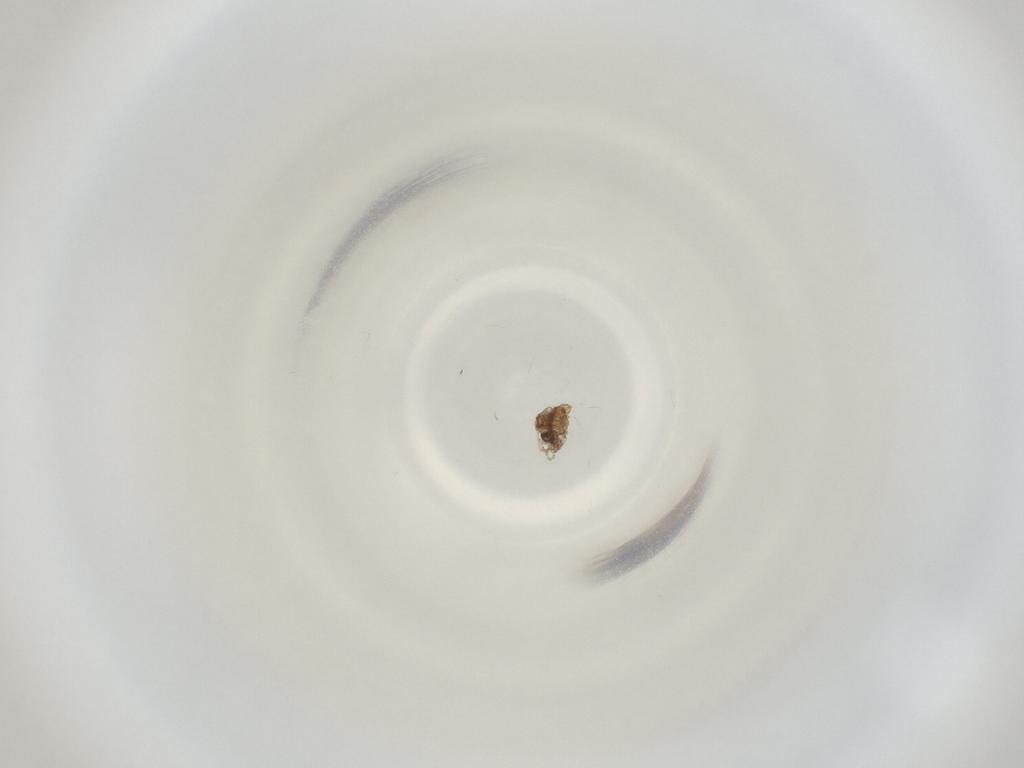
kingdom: Animalia
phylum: Arthropoda
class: Insecta
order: Diptera
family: Cecidomyiidae
